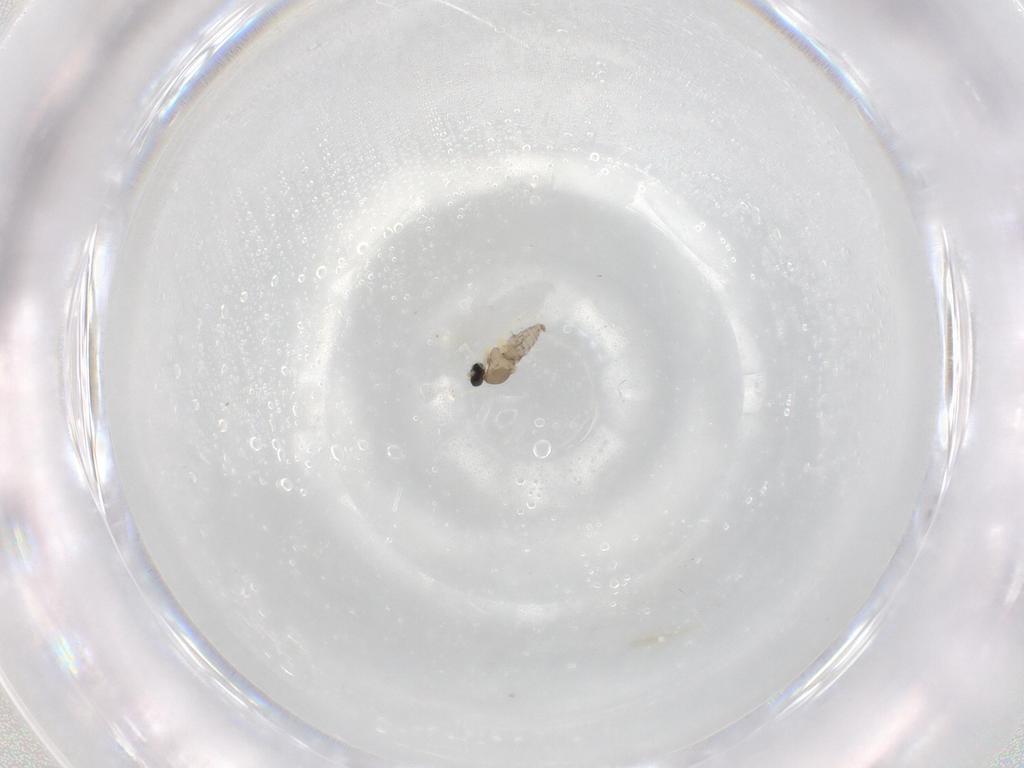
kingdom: Animalia
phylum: Arthropoda
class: Insecta
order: Diptera
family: Cecidomyiidae
